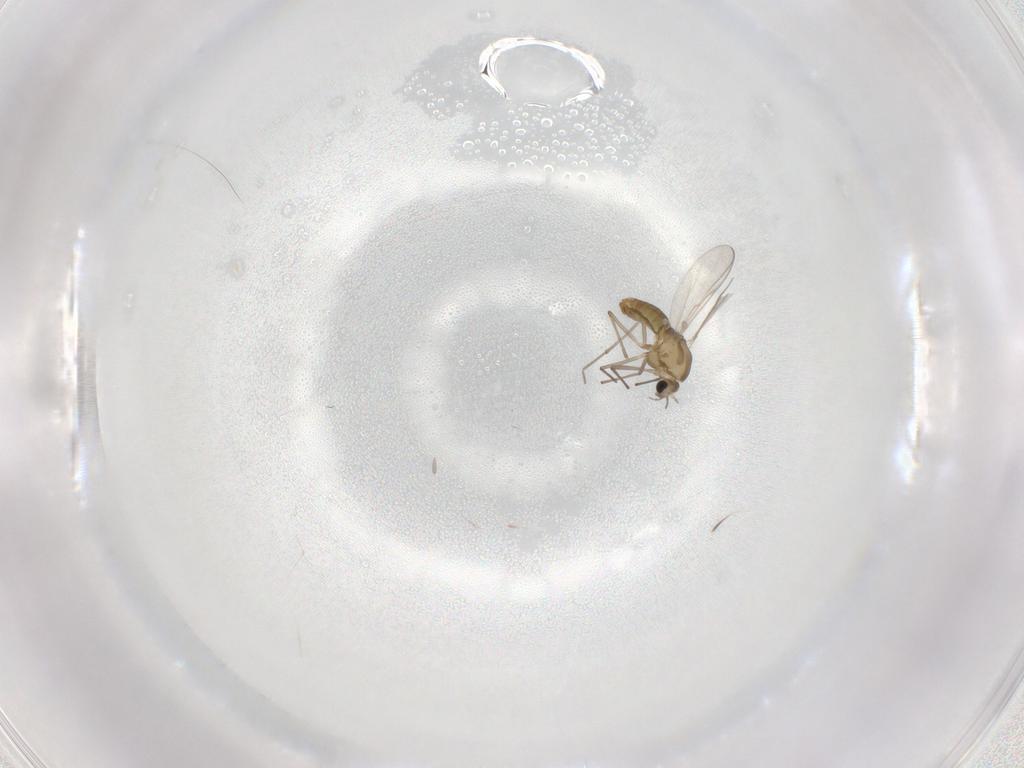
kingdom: Animalia
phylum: Arthropoda
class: Insecta
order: Diptera
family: Chironomidae
